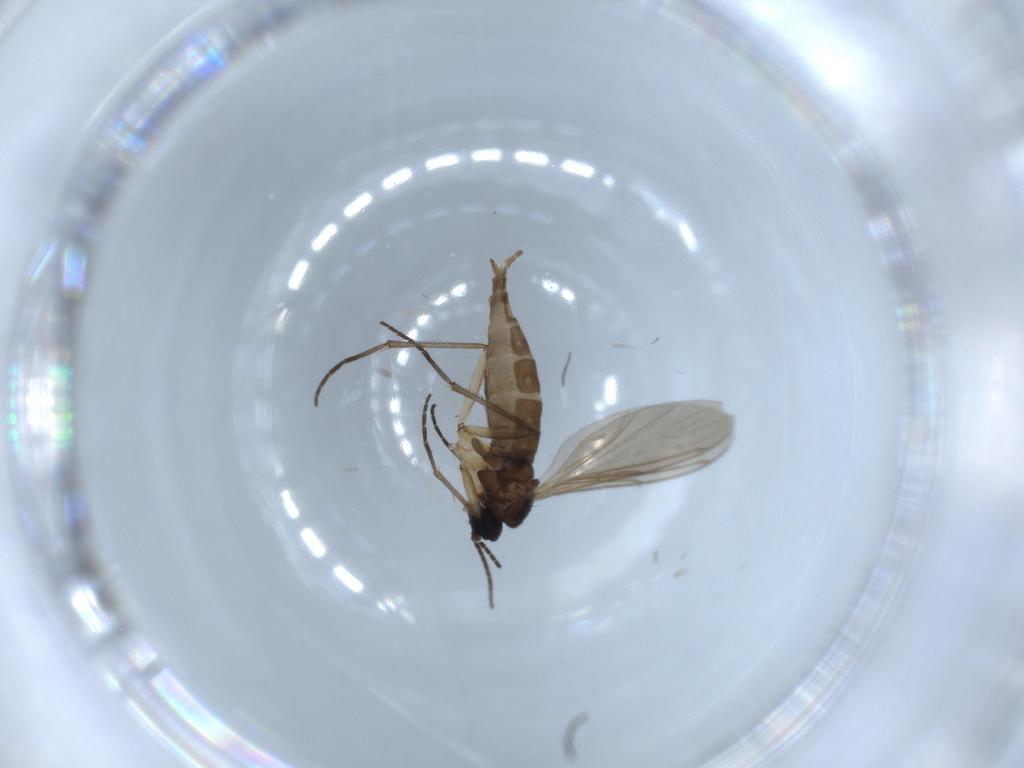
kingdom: Animalia
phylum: Arthropoda
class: Insecta
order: Diptera
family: Sciaridae
